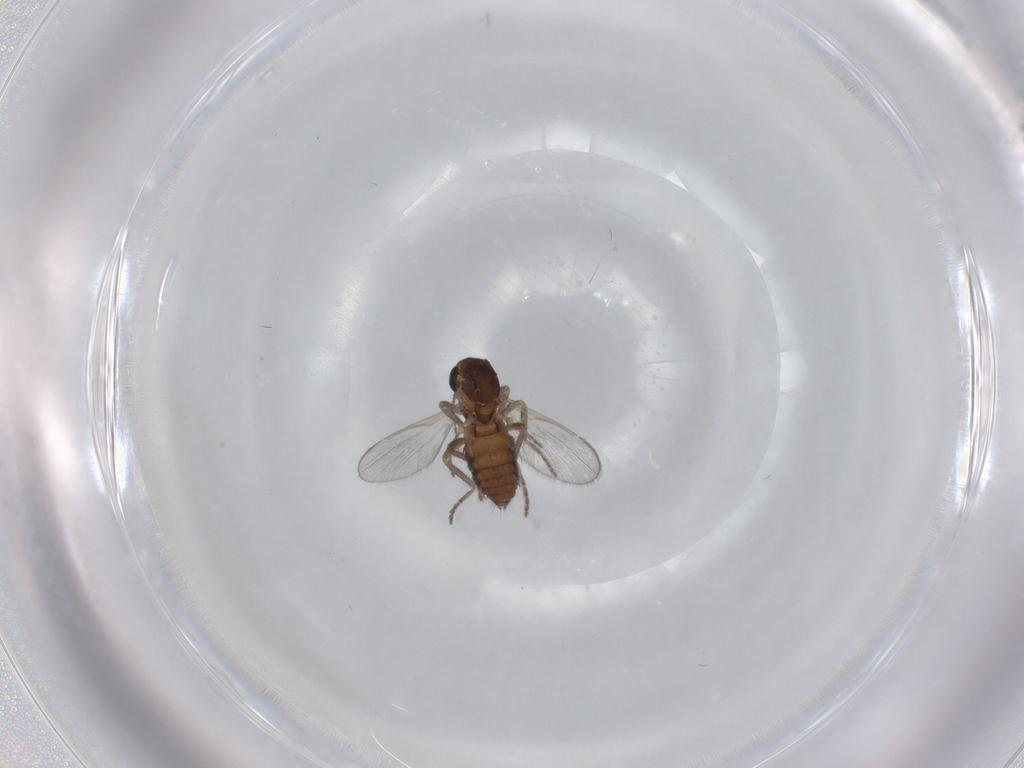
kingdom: Animalia
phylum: Arthropoda
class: Insecta
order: Diptera
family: Ceratopogonidae
